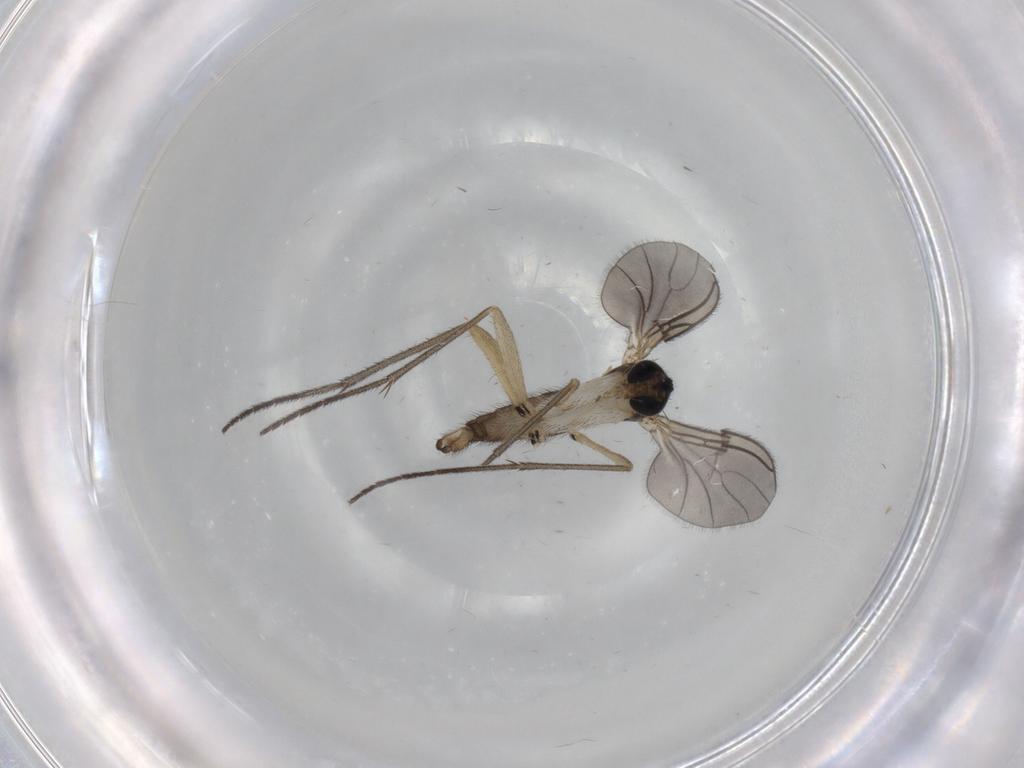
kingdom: Animalia
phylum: Arthropoda
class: Insecta
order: Diptera
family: Sciaridae
